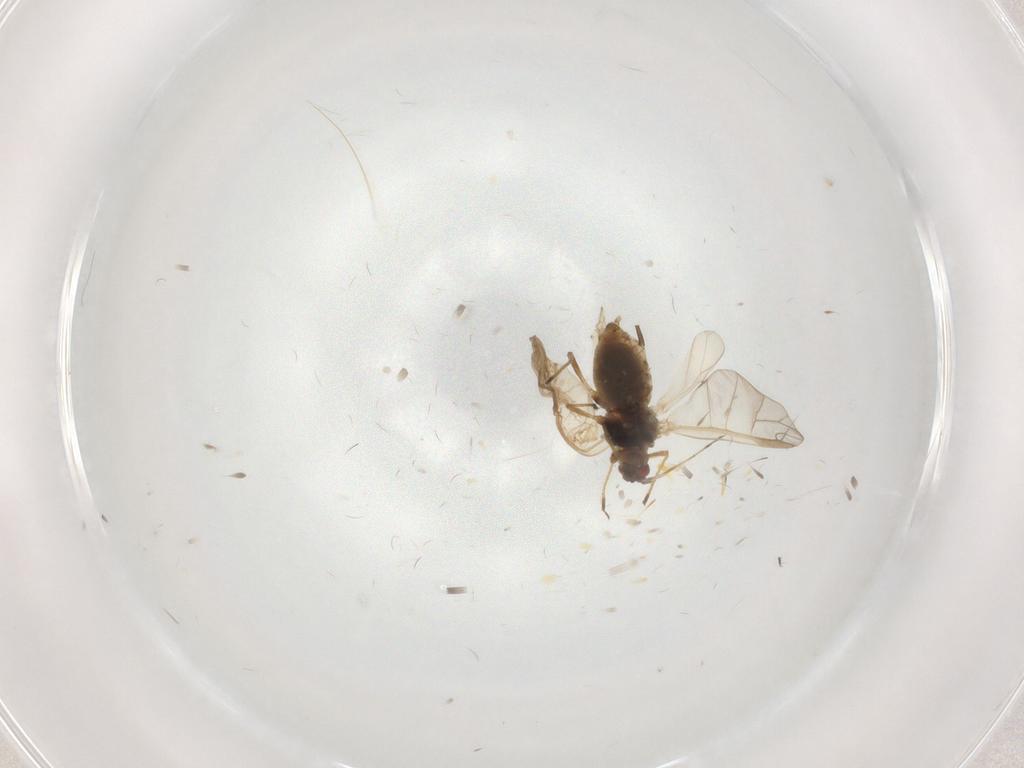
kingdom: Animalia
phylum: Arthropoda
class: Insecta
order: Hemiptera
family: Aphididae
